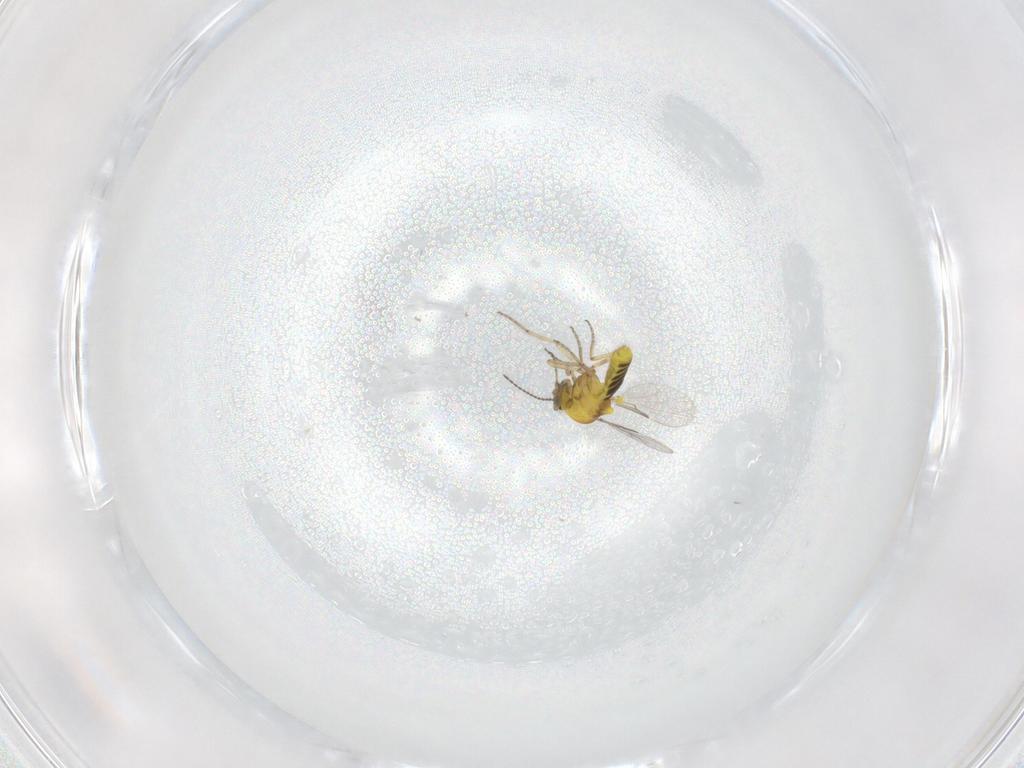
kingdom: Animalia
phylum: Arthropoda
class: Insecta
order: Diptera
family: Ceratopogonidae
